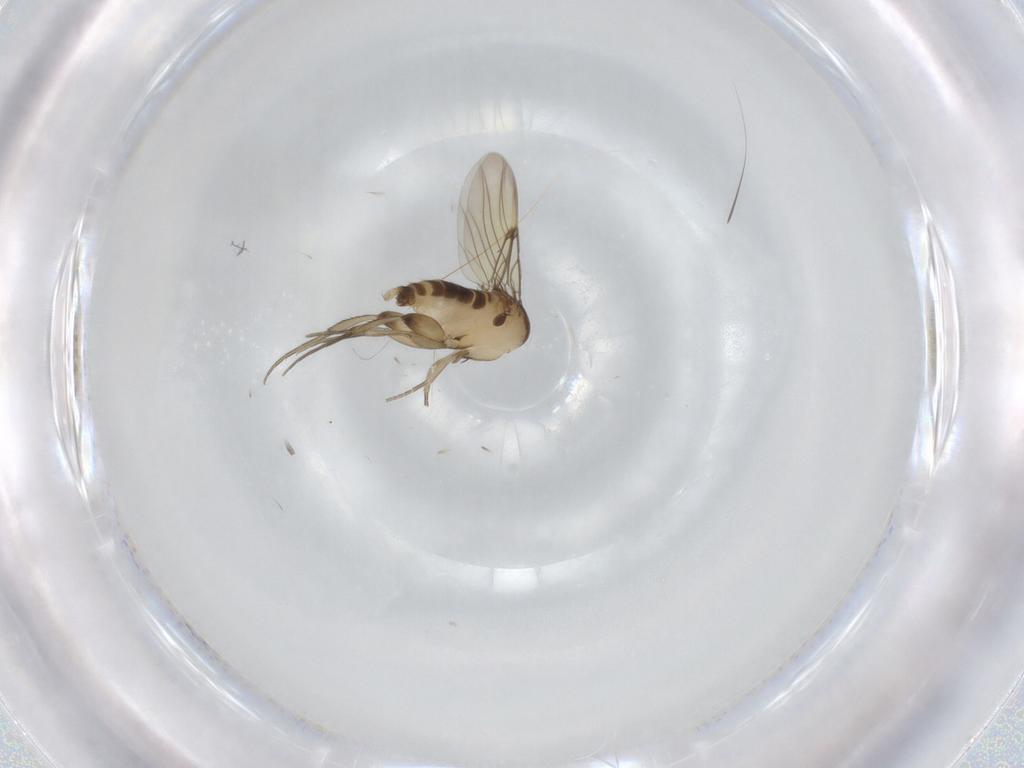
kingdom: Animalia
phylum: Arthropoda
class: Insecta
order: Diptera
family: Phoridae
